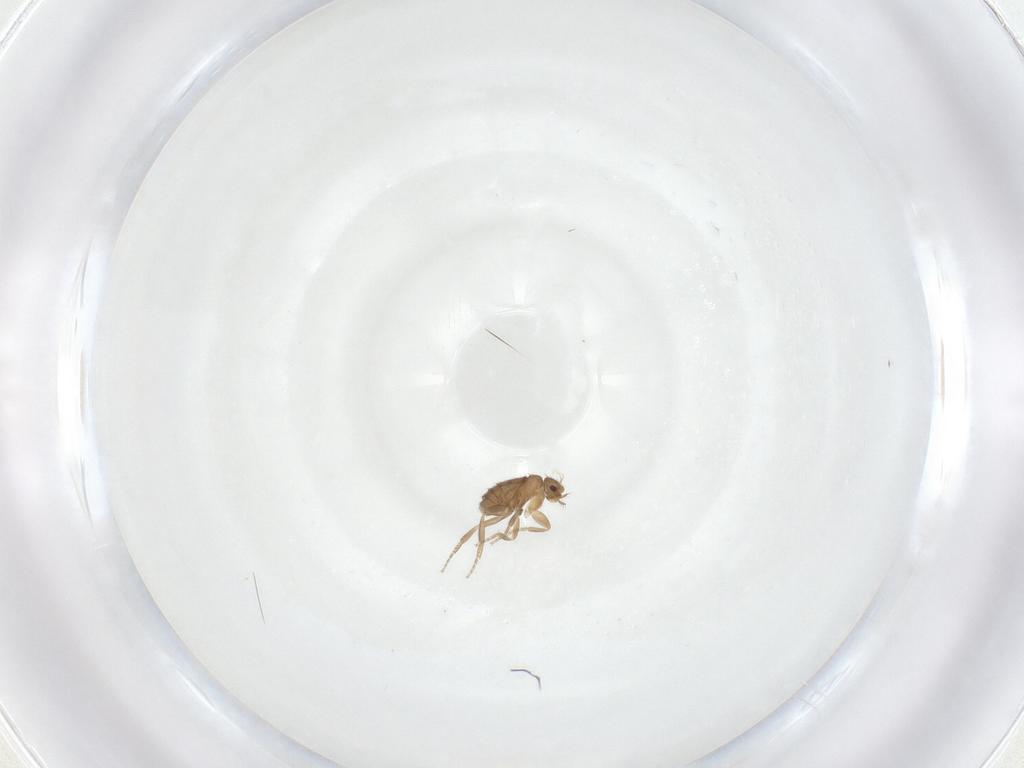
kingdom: Animalia
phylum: Arthropoda
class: Insecta
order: Diptera
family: Phoridae
